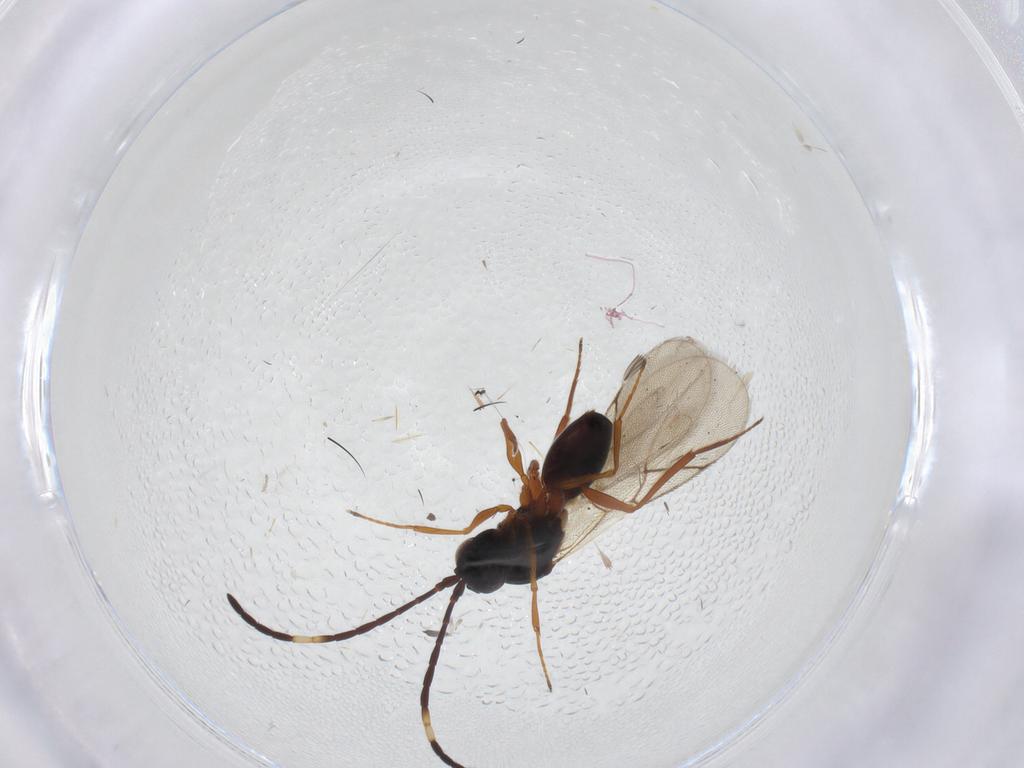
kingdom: Animalia
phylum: Arthropoda
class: Insecta
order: Hymenoptera
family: Figitidae
